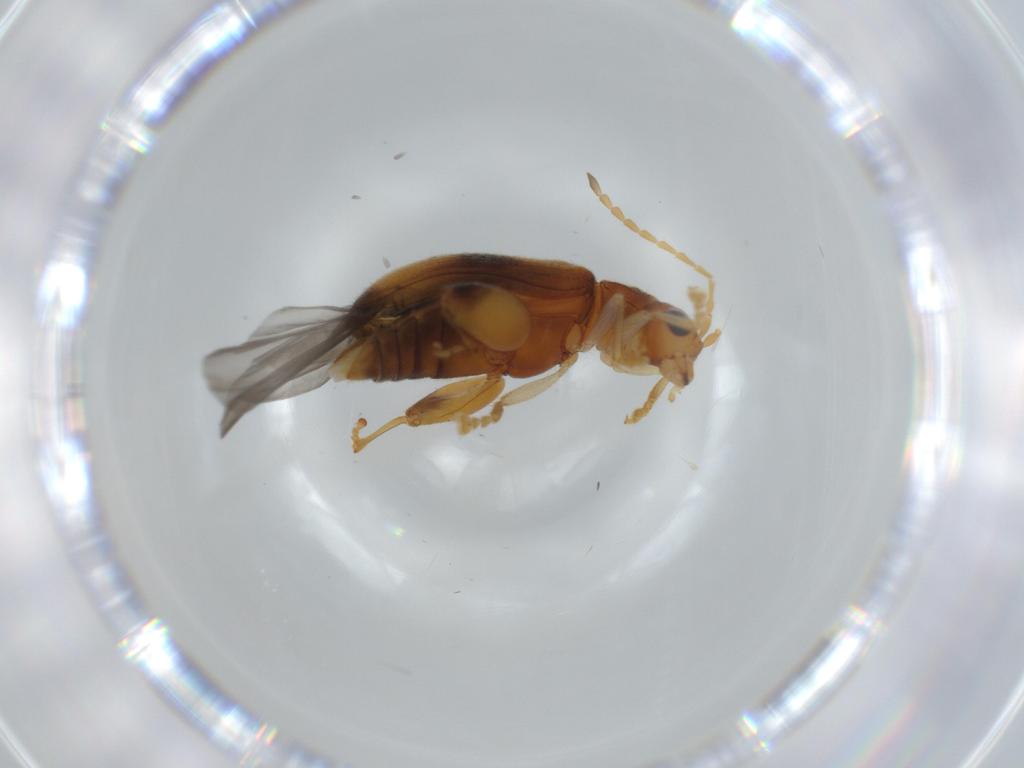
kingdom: Animalia
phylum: Arthropoda
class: Insecta
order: Coleoptera
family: Chrysomelidae
